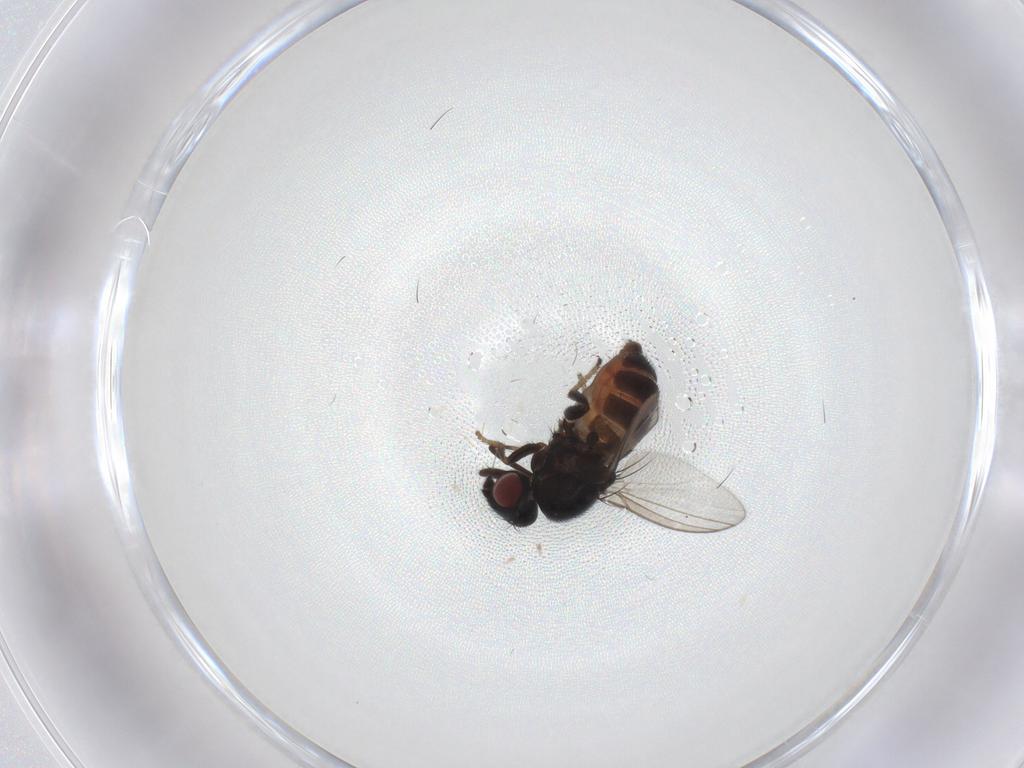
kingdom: Animalia
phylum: Arthropoda
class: Insecta
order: Diptera
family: Milichiidae
